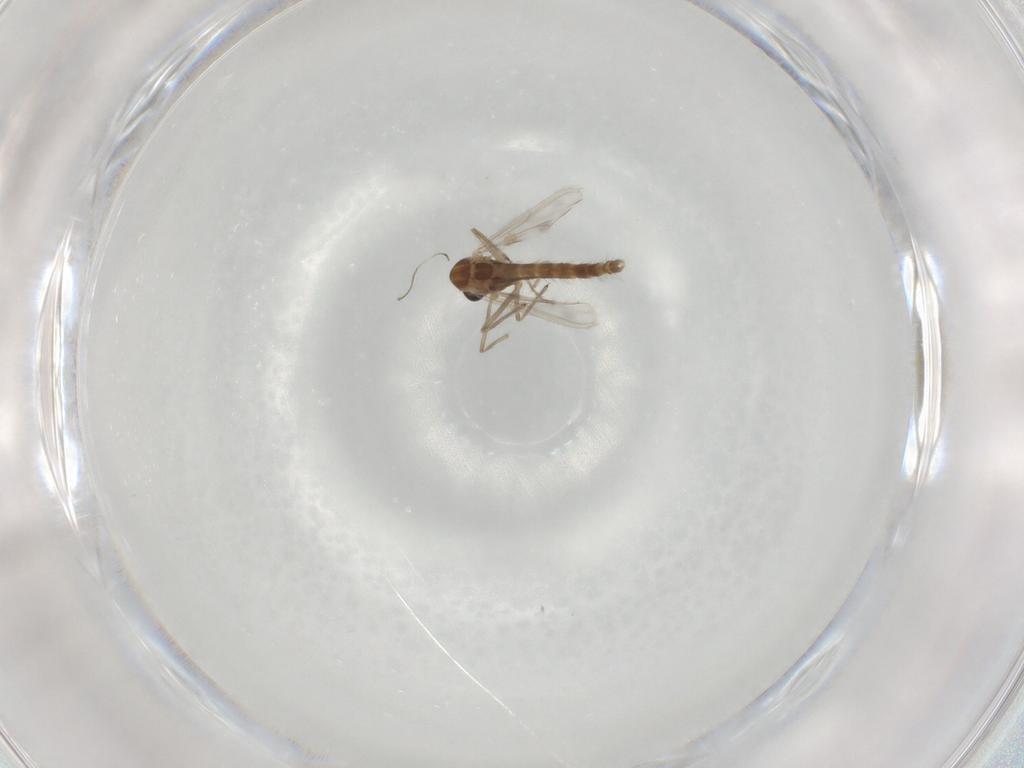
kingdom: Animalia
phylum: Arthropoda
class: Insecta
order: Diptera
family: Chironomidae
